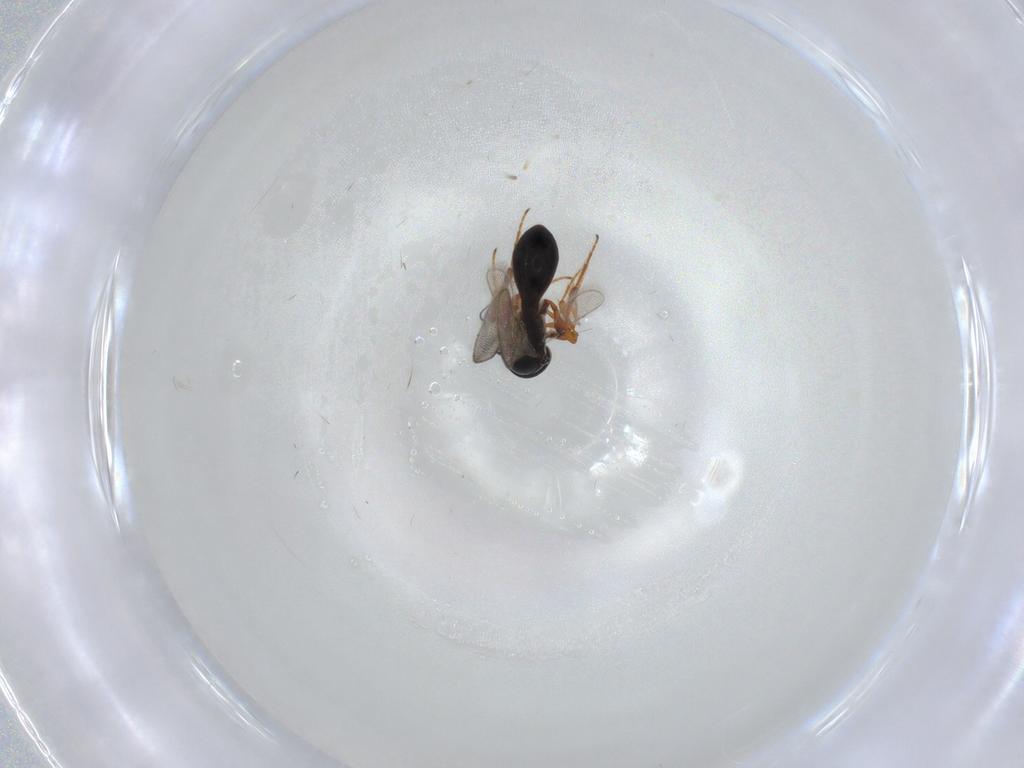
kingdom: Animalia
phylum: Arthropoda
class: Insecta
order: Hymenoptera
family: Platygastridae
